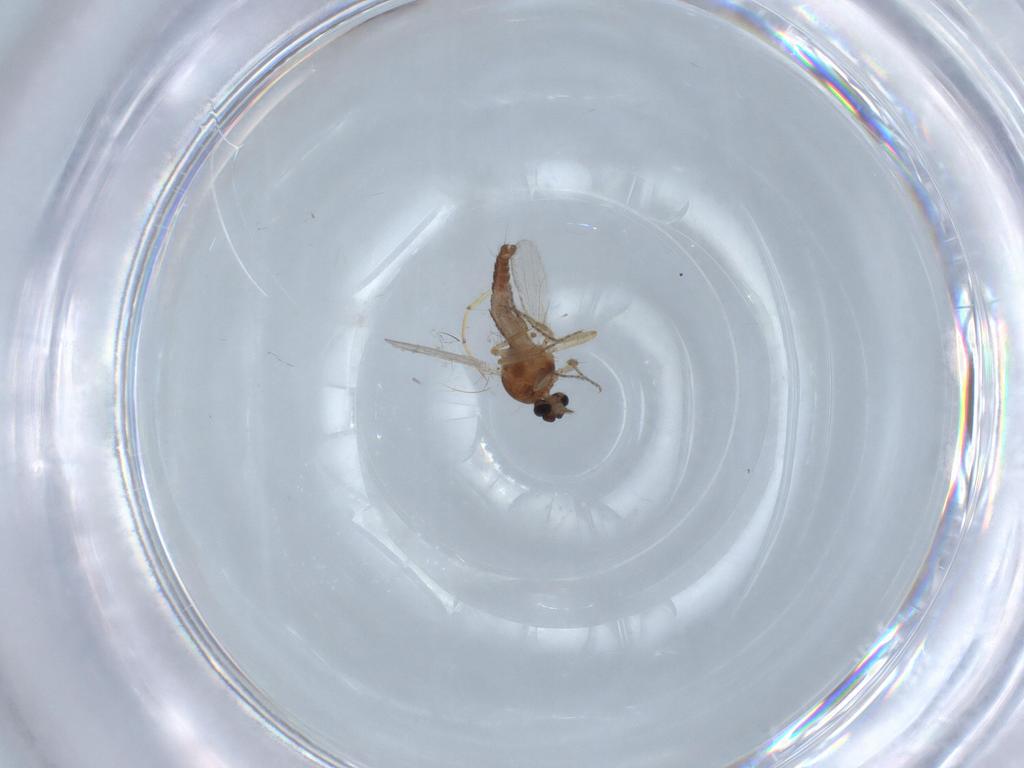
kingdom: Animalia
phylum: Arthropoda
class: Insecta
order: Diptera
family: Ceratopogonidae
